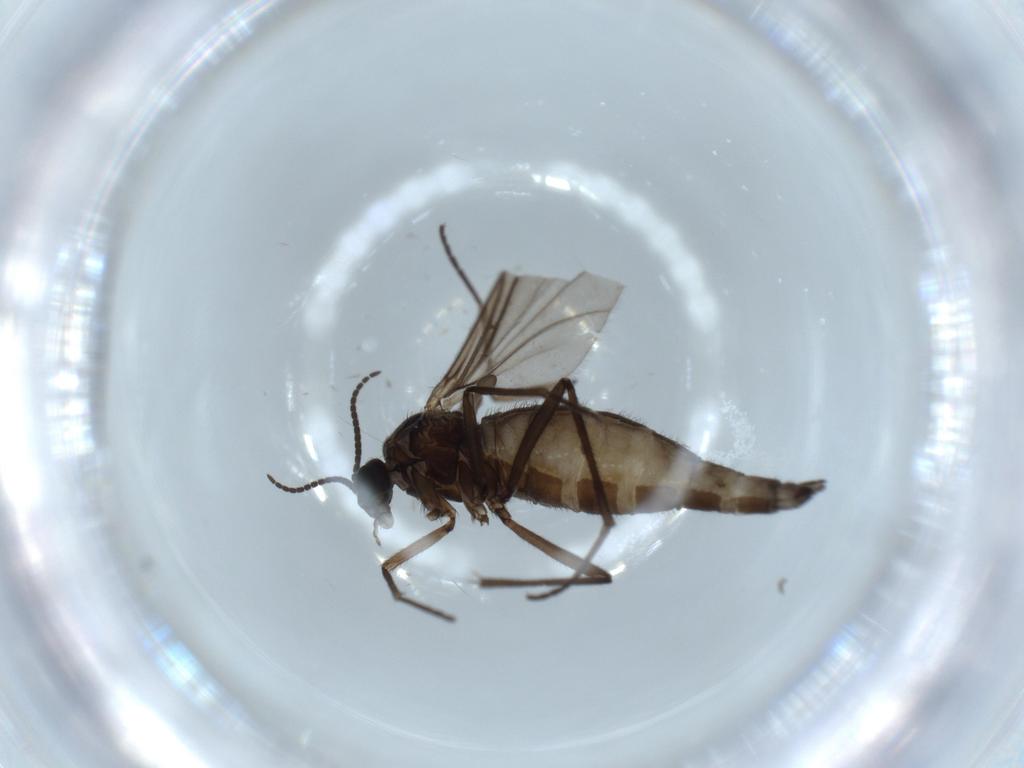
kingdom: Animalia
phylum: Arthropoda
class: Insecta
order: Diptera
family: Sciaridae
